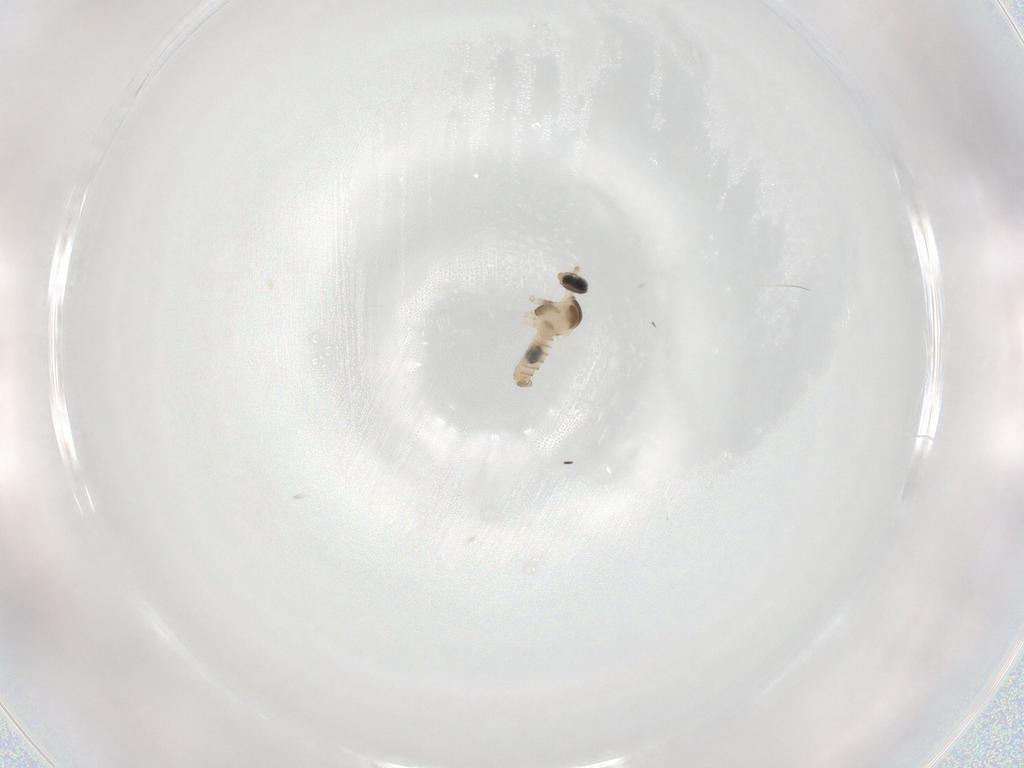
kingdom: Animalia
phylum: Arthropoda
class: Insecta
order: Diptera
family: Cecidomyiidae
